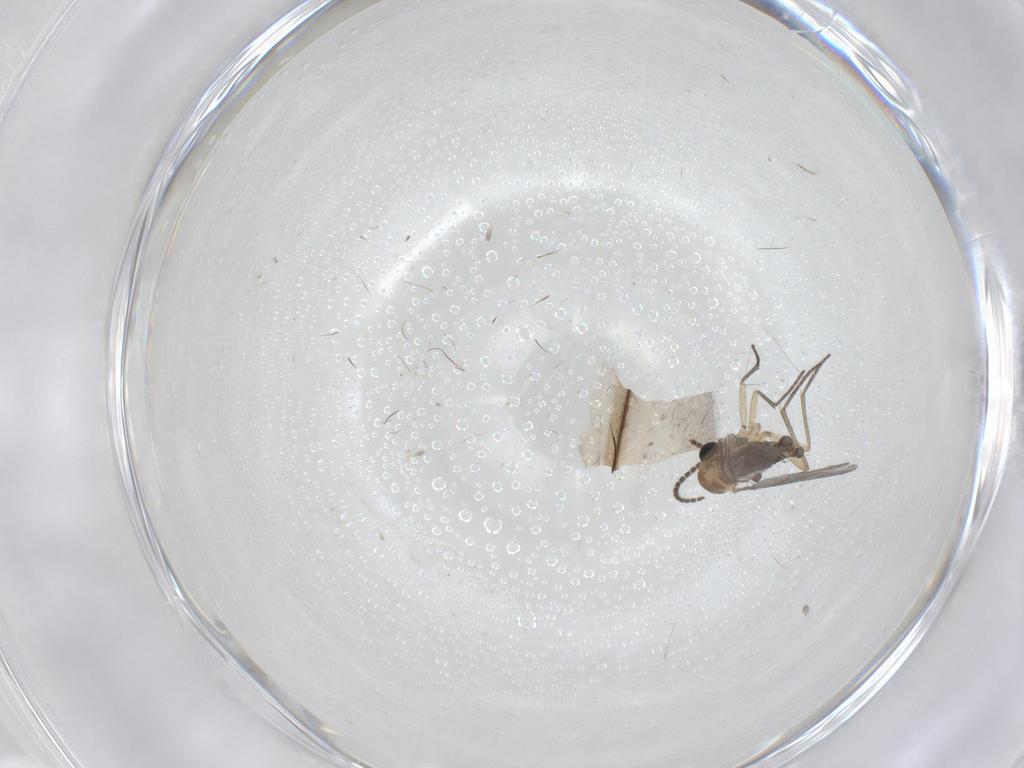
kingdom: Animalia
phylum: Arthropoda
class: Insecta
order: Diptera
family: Sciaridae
